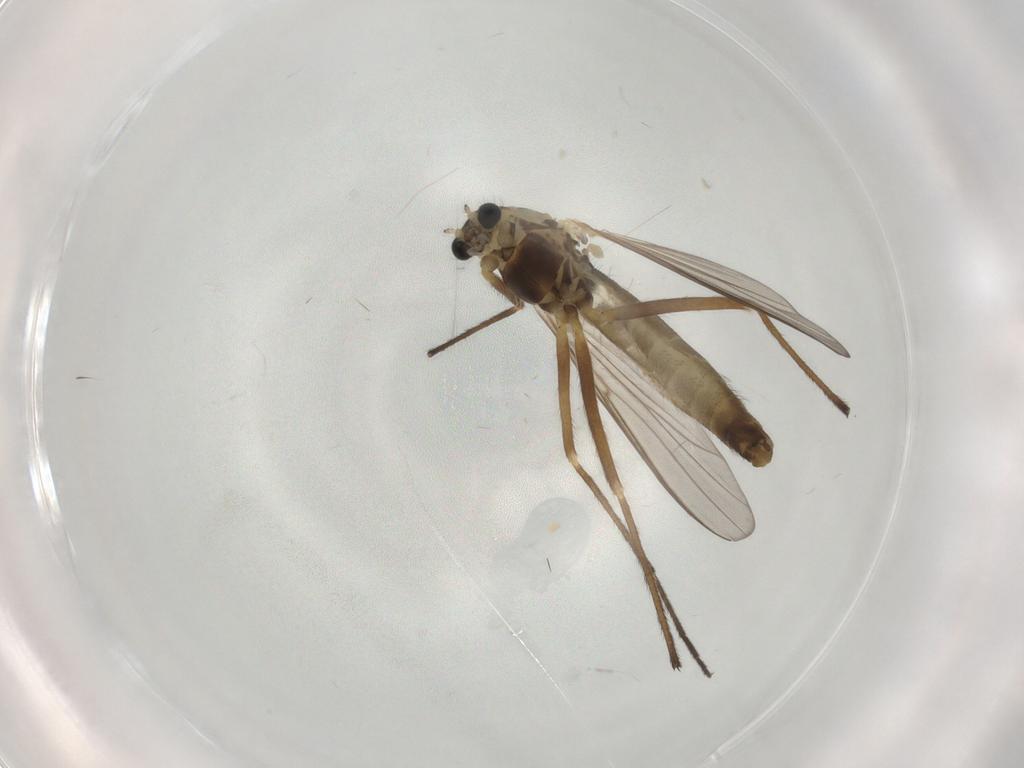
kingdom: Animalia
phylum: Arthropoda
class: Insecta
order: Diptera
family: Chironomidae
